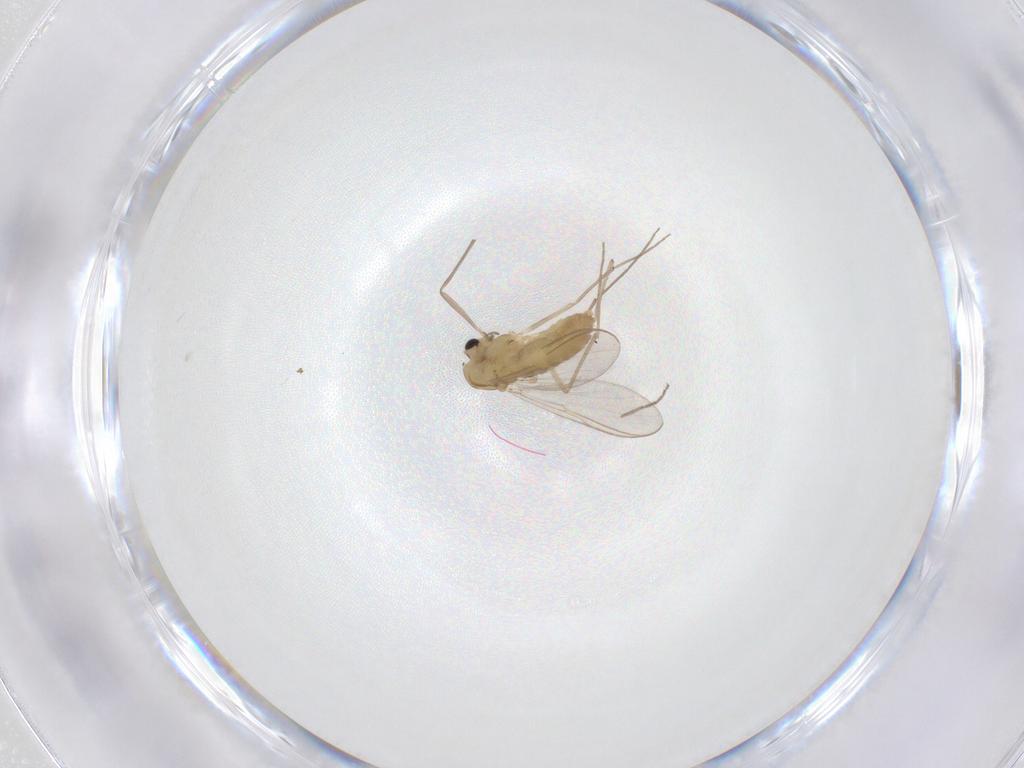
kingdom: Animalia
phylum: Arthropoda
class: Insecta
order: Diptera
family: Chironomidae
